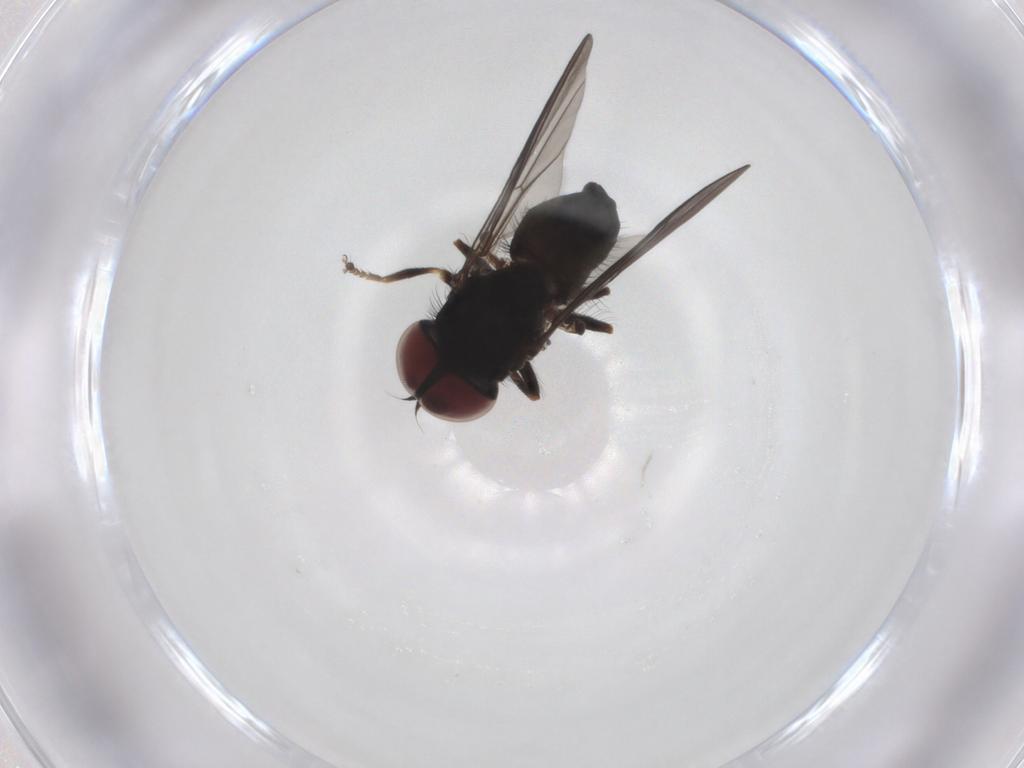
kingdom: Animalia
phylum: Arthropoda
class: Insecta
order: Diptera
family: Pipunculidae
